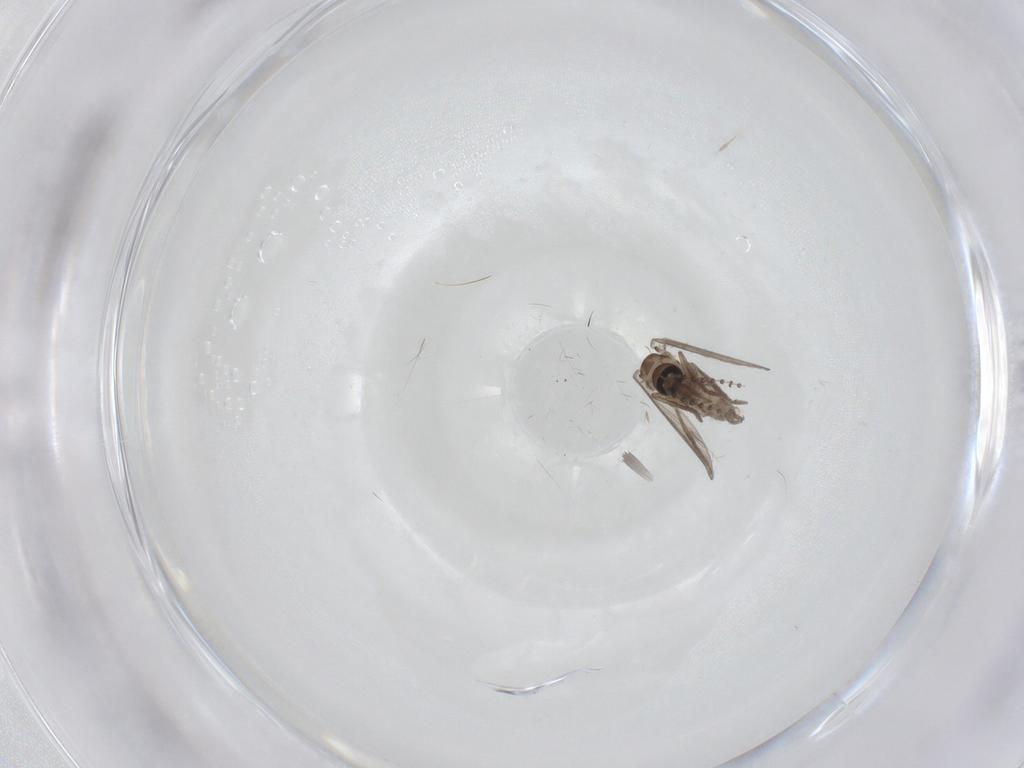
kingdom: Animalia
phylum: Arthropoda
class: Insecta
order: Diptera
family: Psychodidae
